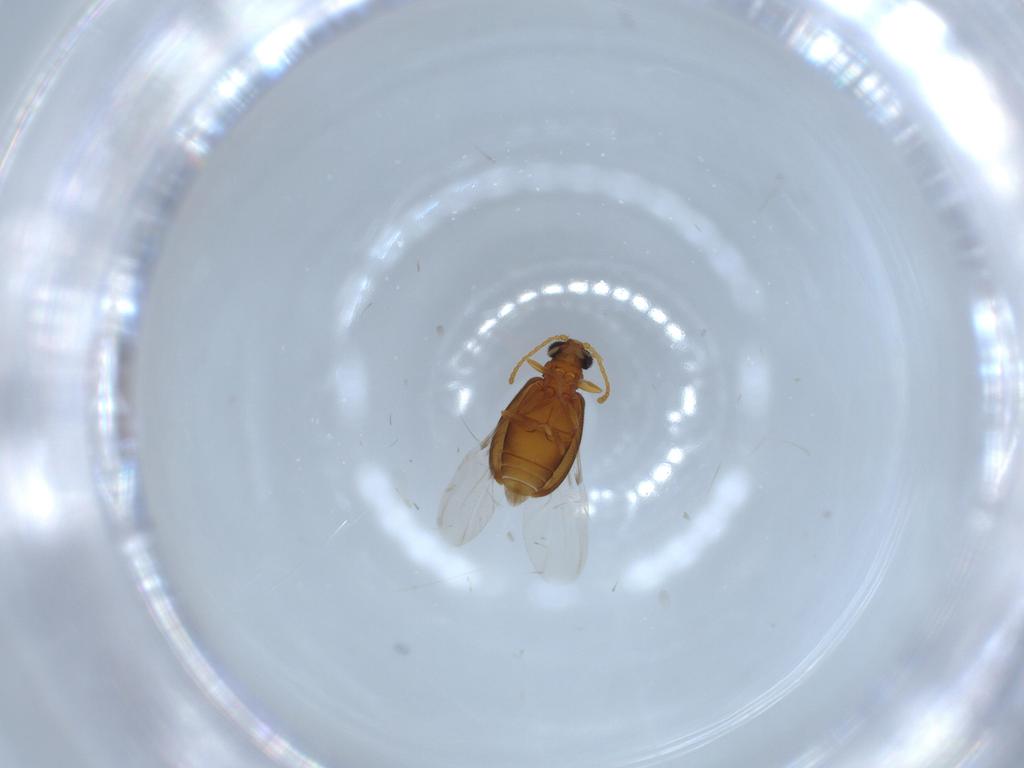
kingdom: Animalia
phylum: Arthropoda
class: Insecta
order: Coleoptera
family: Aderidae
